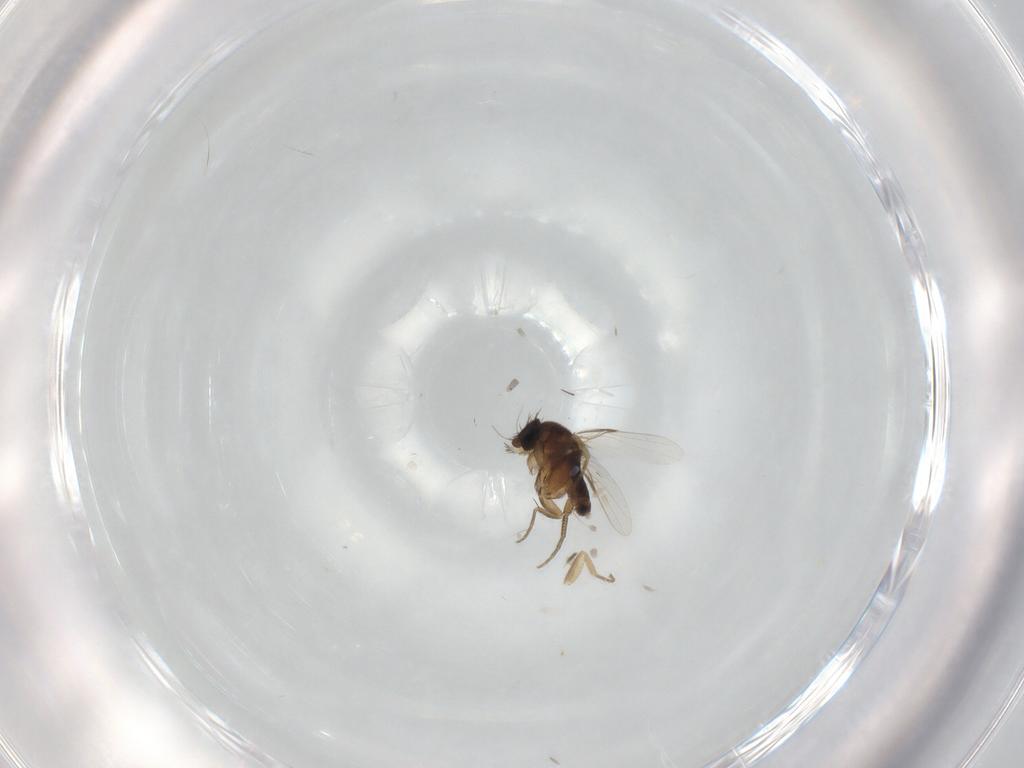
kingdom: Animalia
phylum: Arthropoda
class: Insecta
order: Diptera
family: Phoridae
